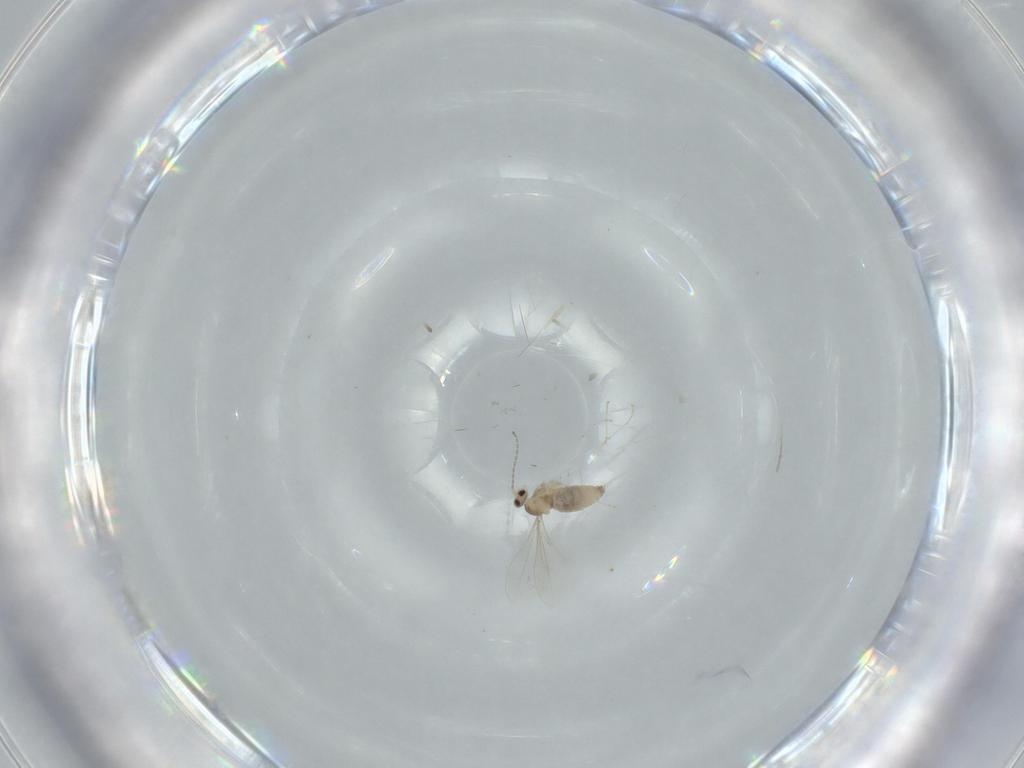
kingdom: Animalia
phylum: Arthropoda
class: Insecta
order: Diptera
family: Cecidomyiidae
